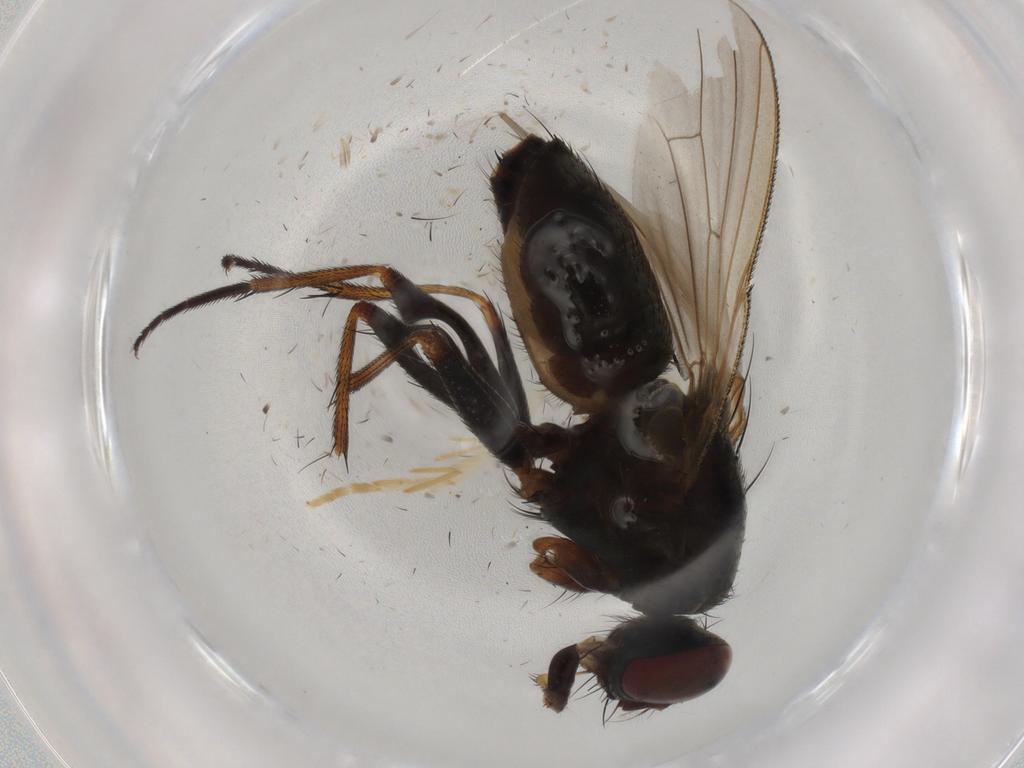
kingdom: Animalia
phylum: Arthropoda
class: Insecta
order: Diptera
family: Muscidae
